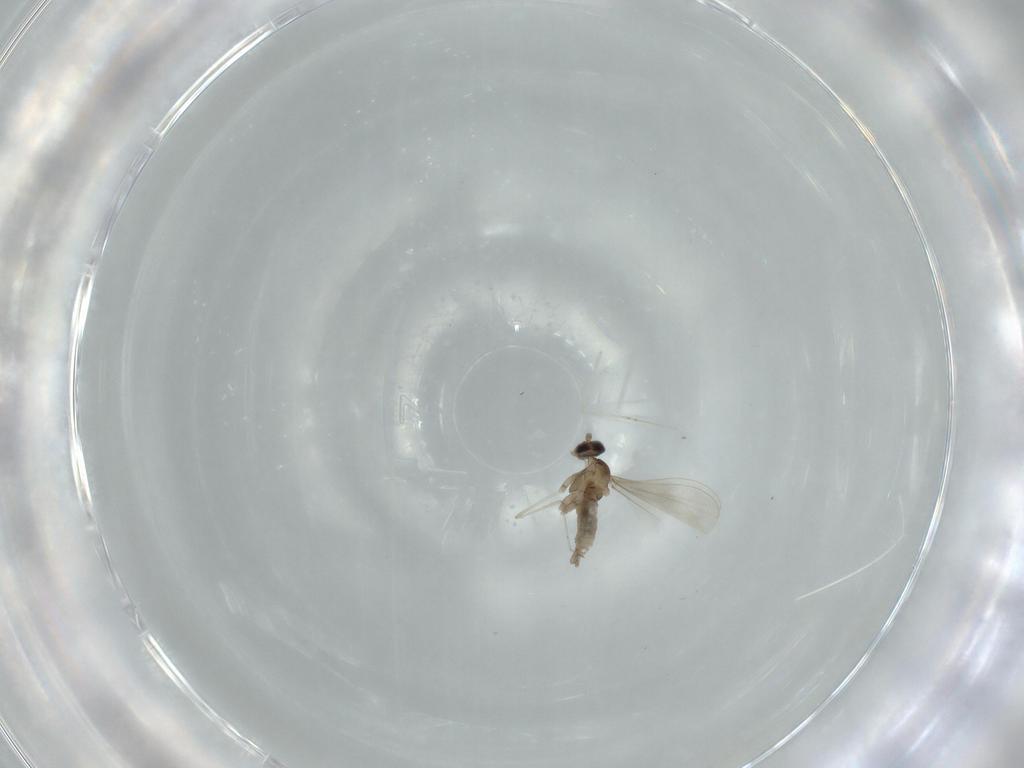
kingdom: Animalia
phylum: Arthropoda
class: Insecta
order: Diptera
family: Cecidomyiidae
